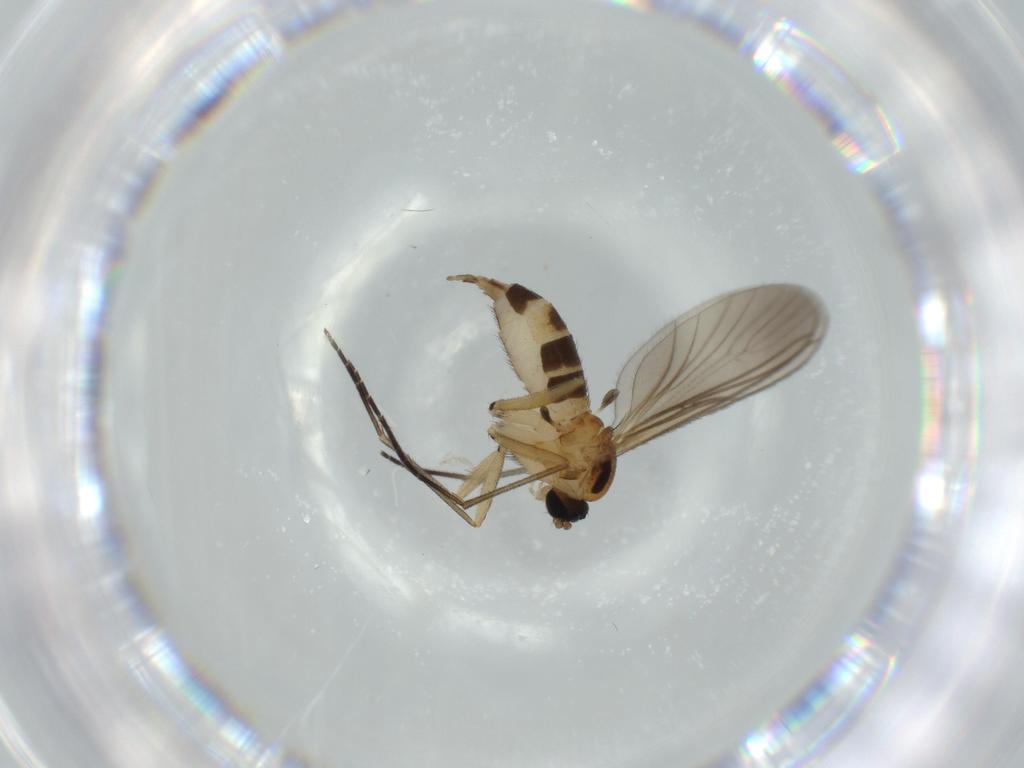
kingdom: Animalia
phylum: Arthropoda
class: Insecta
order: Diptera
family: Sciaridae
